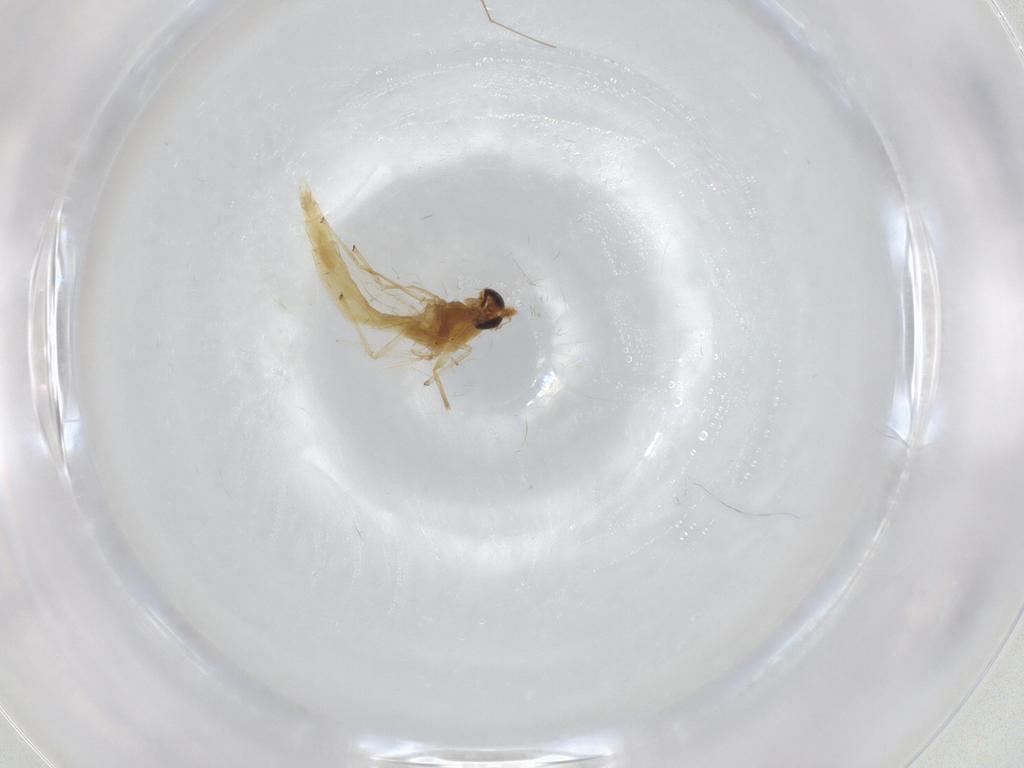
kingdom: Animalia
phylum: Arthropoda
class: Insecta
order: Diptera
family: Chironomidae
